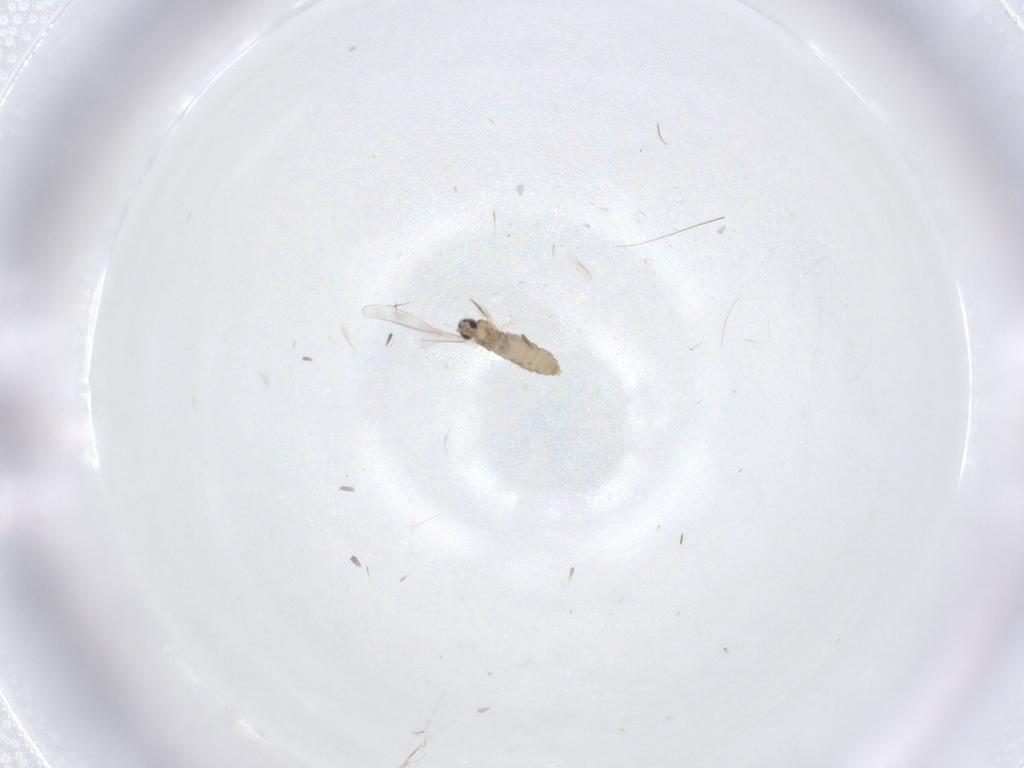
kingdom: Animalia
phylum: Arthropoda
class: Insecta
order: Diptera
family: Cecidomyiidae
